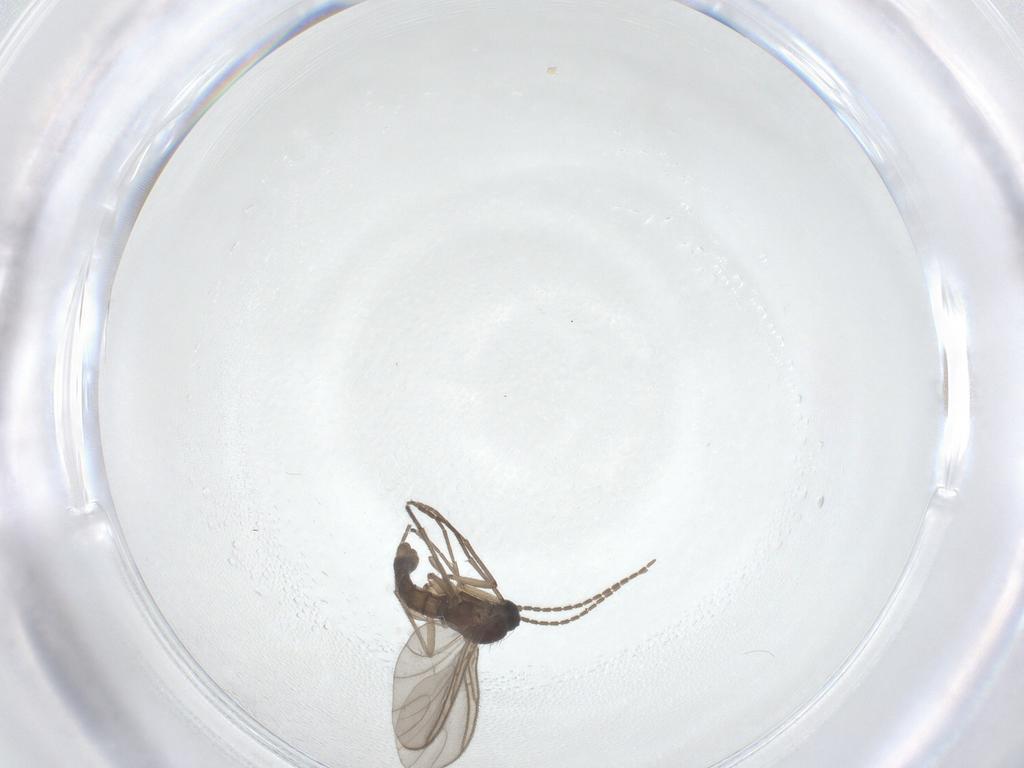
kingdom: Animalia
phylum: Arthropoda
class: Insecta
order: Diptera
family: Sciaridae
